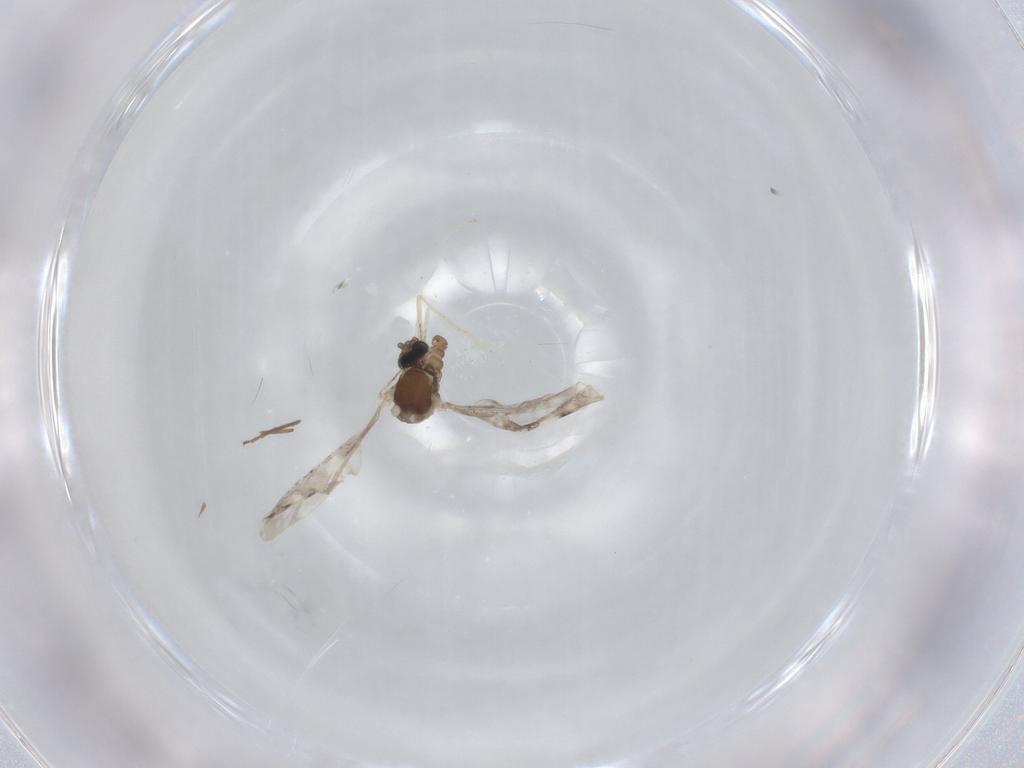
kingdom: Animalia
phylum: Arthropoda
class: Insecta
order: Diptera
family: Cecidomyiidae
